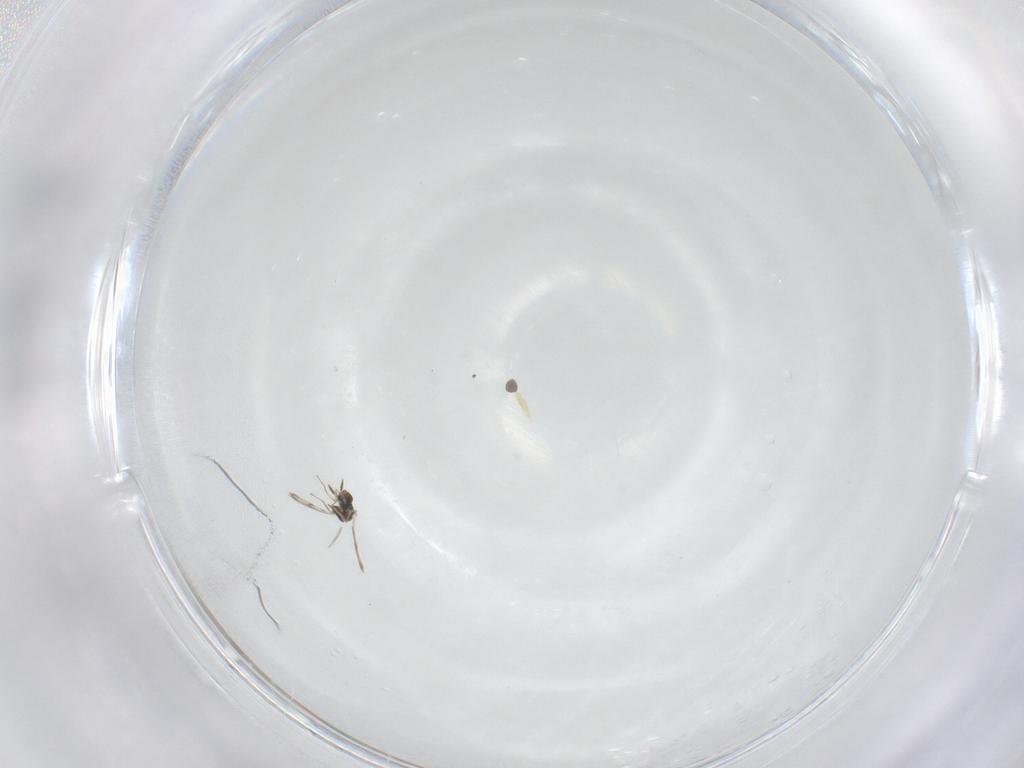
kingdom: Animalia
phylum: Arthropoda
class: Insecta
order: Hymenoptera
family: Eulophidae
